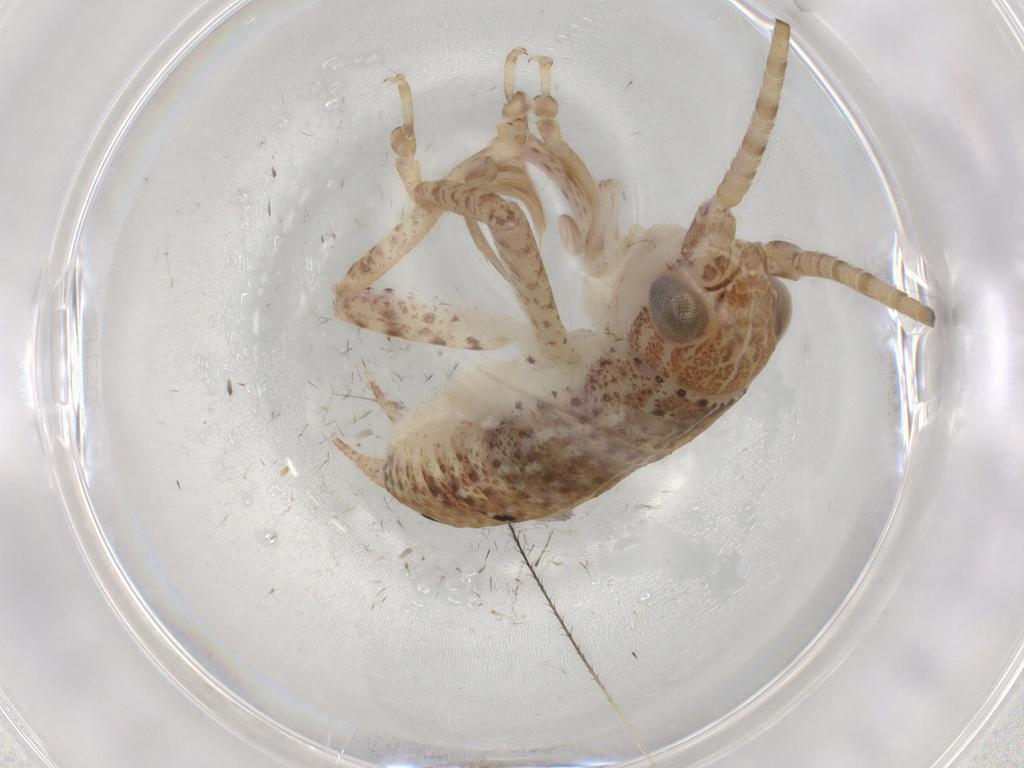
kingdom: Animalia
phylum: Arthropoda
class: Insecta
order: Orthoptera
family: Gryllidae
